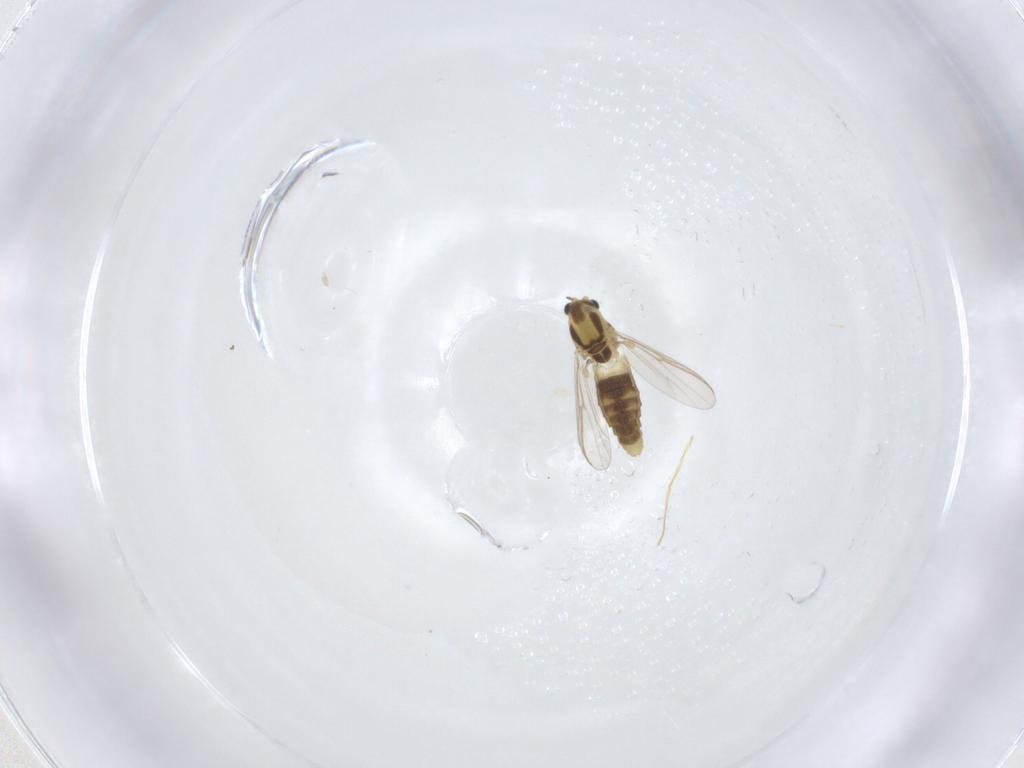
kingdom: Animalia
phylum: Arthropoda
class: Insecta
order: Diptera
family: Chironomidae
